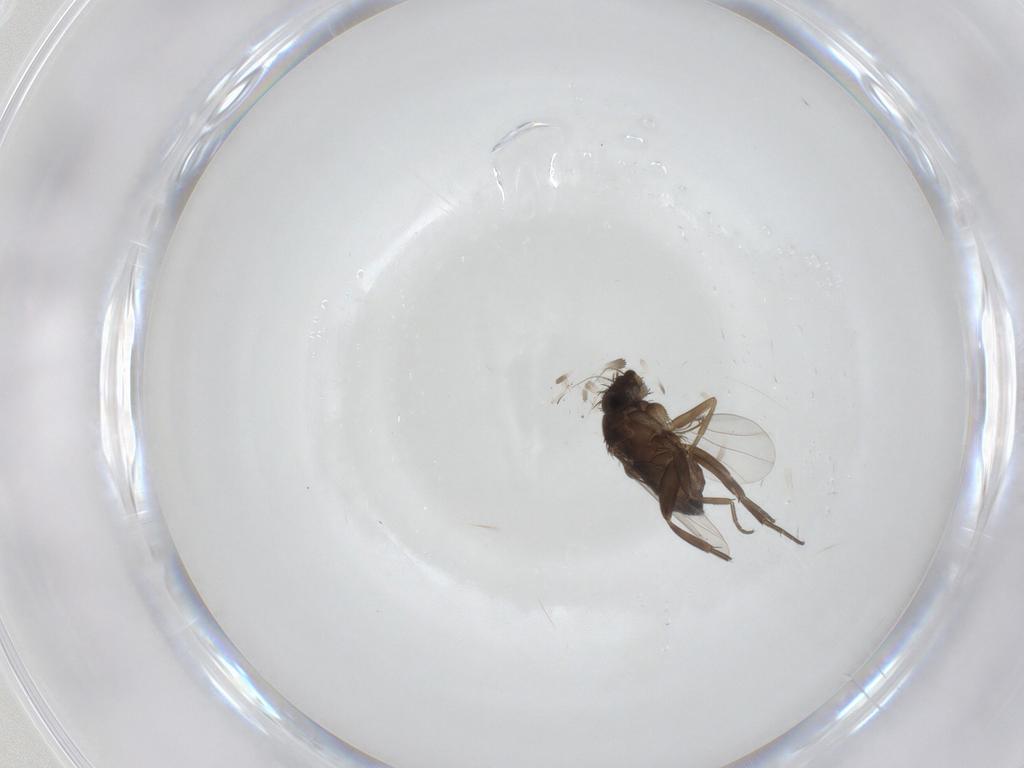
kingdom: Animalia
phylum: Arthropoda
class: Insecta
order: Diptera
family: Phoridae
